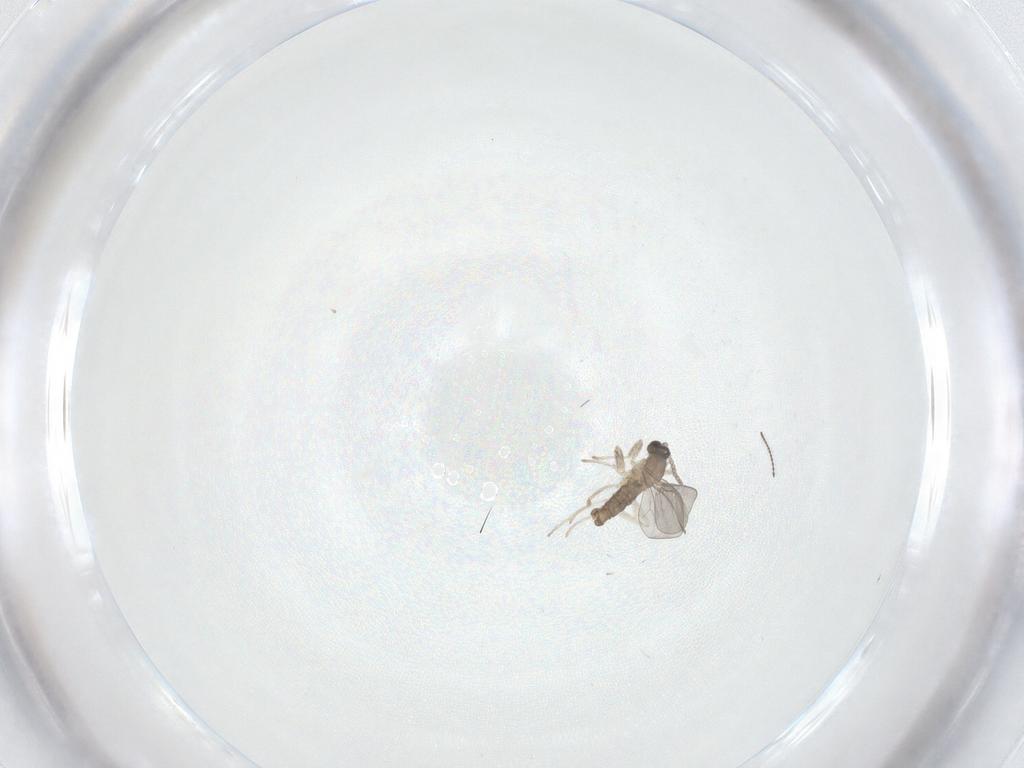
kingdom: Animalia
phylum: Arthropoda
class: Insecta
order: Diptera
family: Cecidomyiidae
